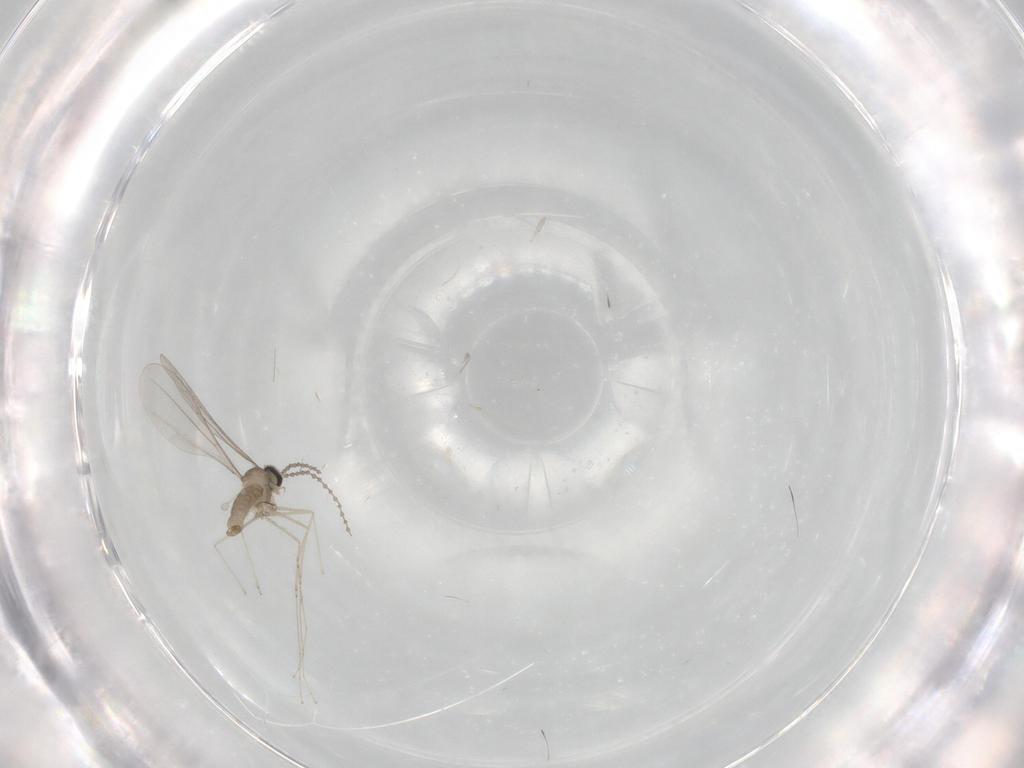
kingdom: Animalia
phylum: Arthropoda
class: Insecta
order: Diptera
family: Cecidomyiidae
